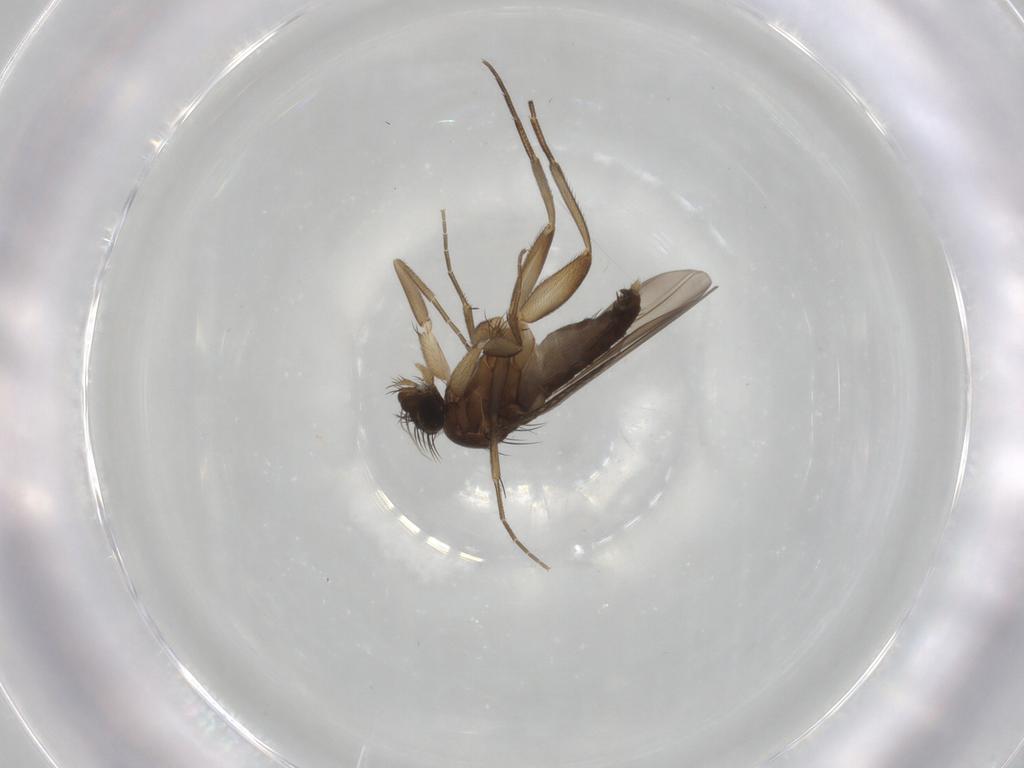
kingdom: Animalia
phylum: Arthropoda
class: Insecta
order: Diptera
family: Phoridae
